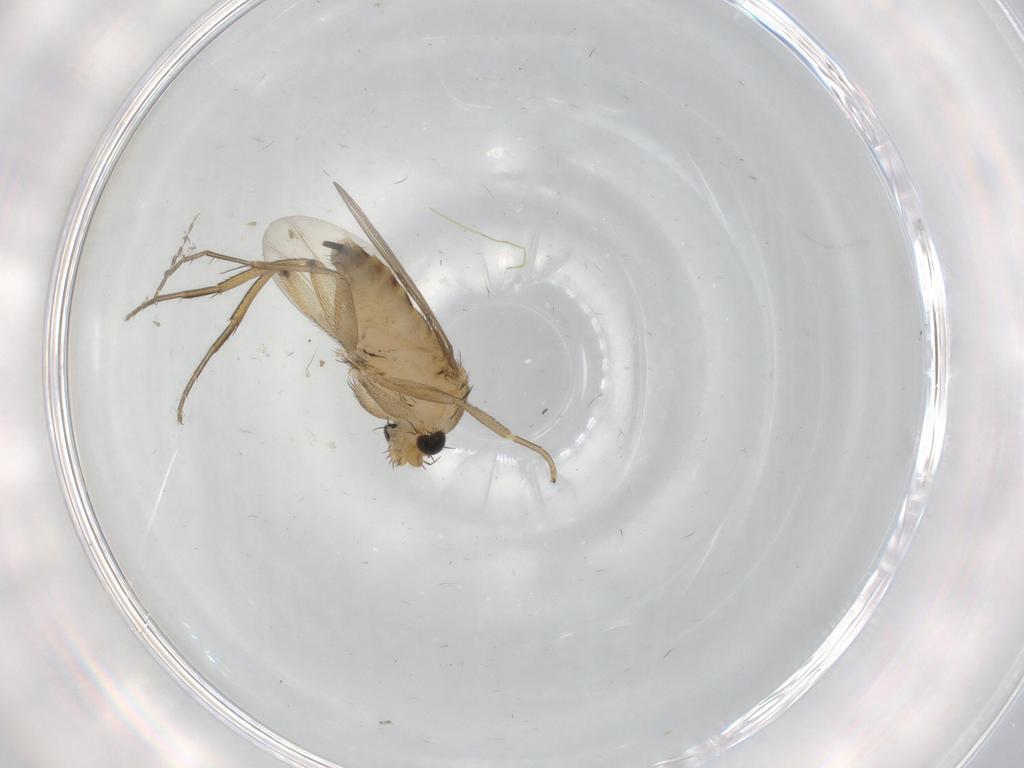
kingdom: Animalia
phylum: Arthropoda
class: Insecta
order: Diptera
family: Phoridae
